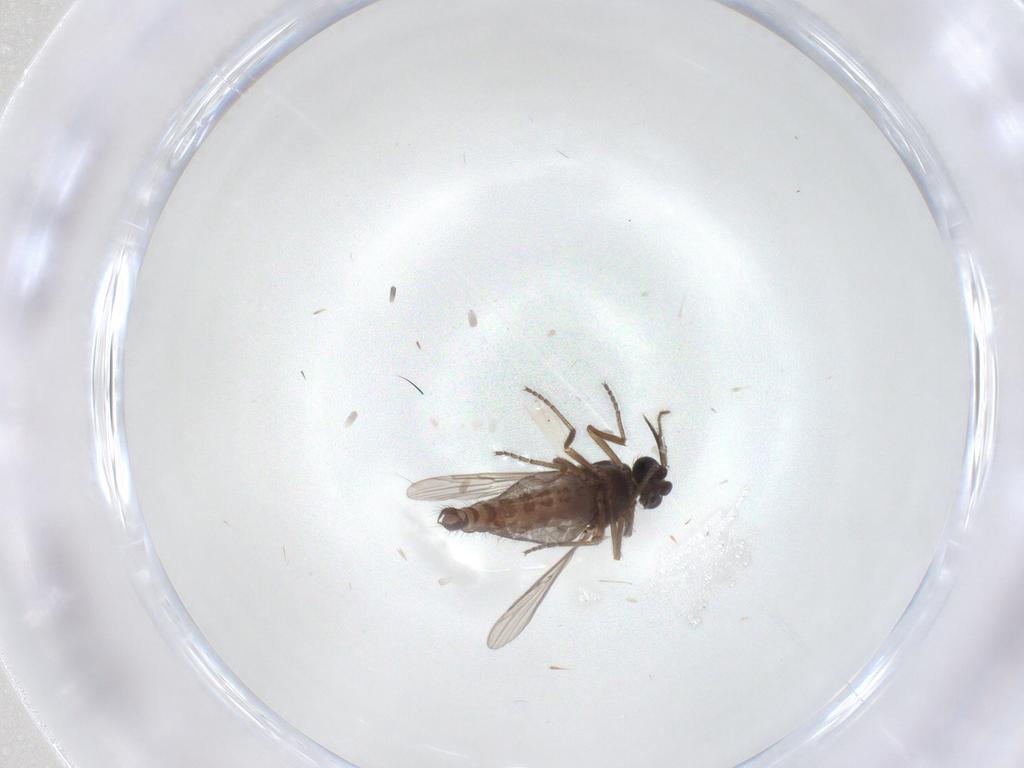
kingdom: Animalia
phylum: Arthropoda
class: Insecta
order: Diptera
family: Ceratopogonidae
